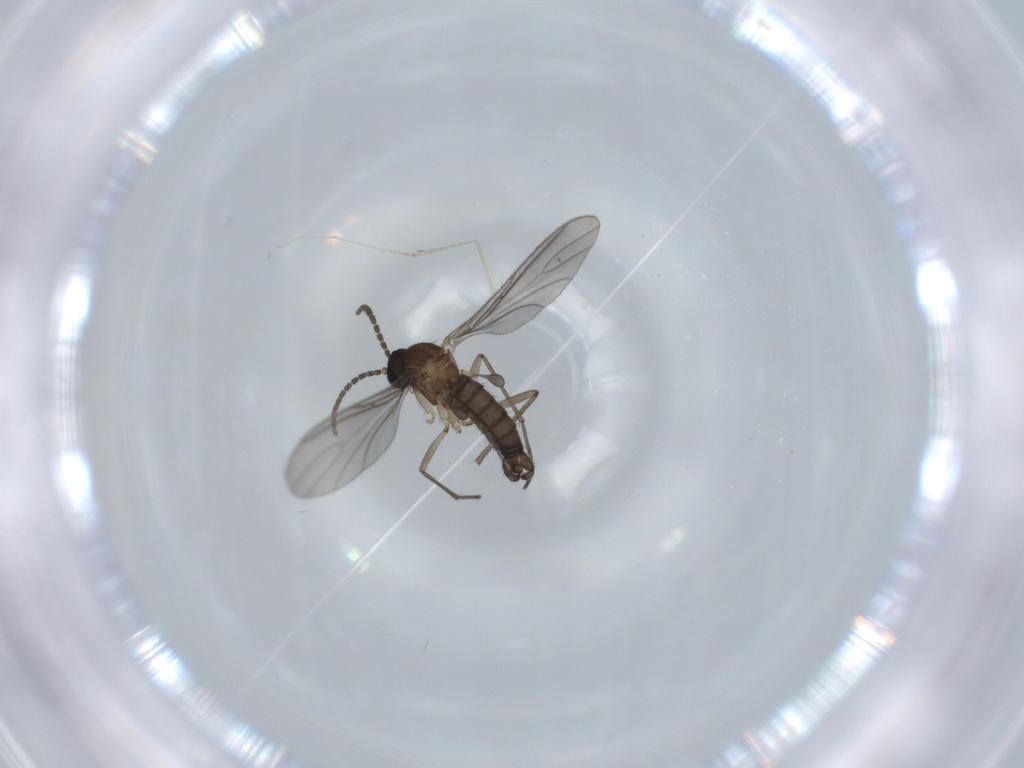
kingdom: Animalia
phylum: Arthropoda
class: Insecta
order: Diptera
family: Sciaridae
